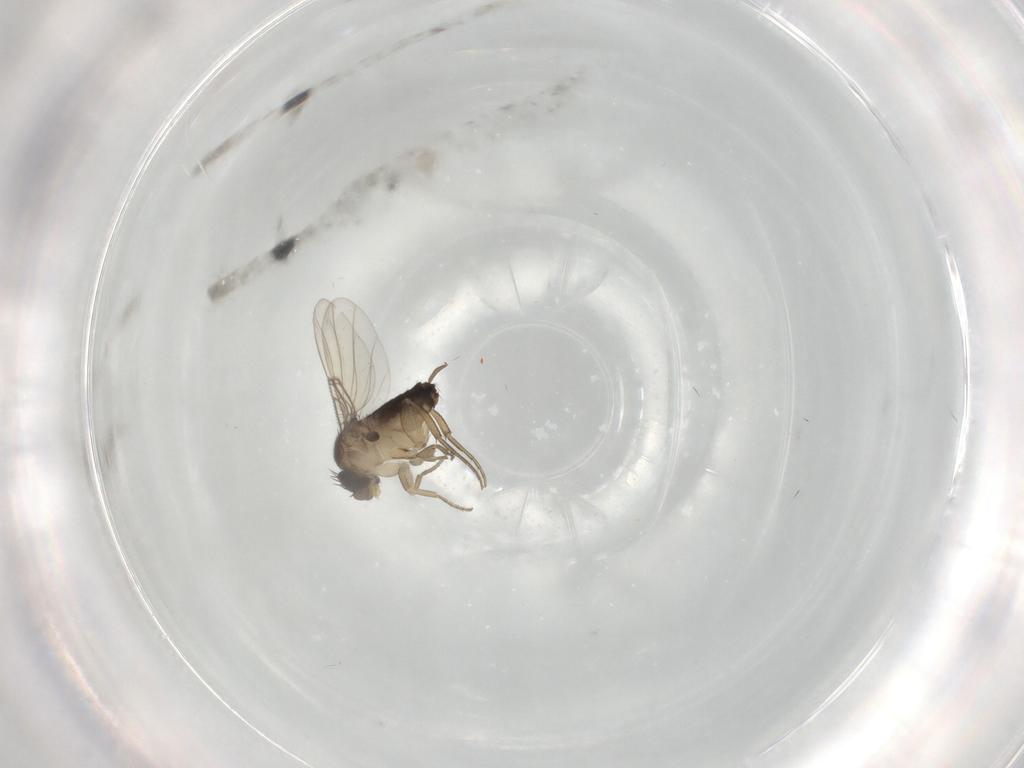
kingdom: Animalia
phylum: Arthropoda
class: Insecta
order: Diptera
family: Phoridae
